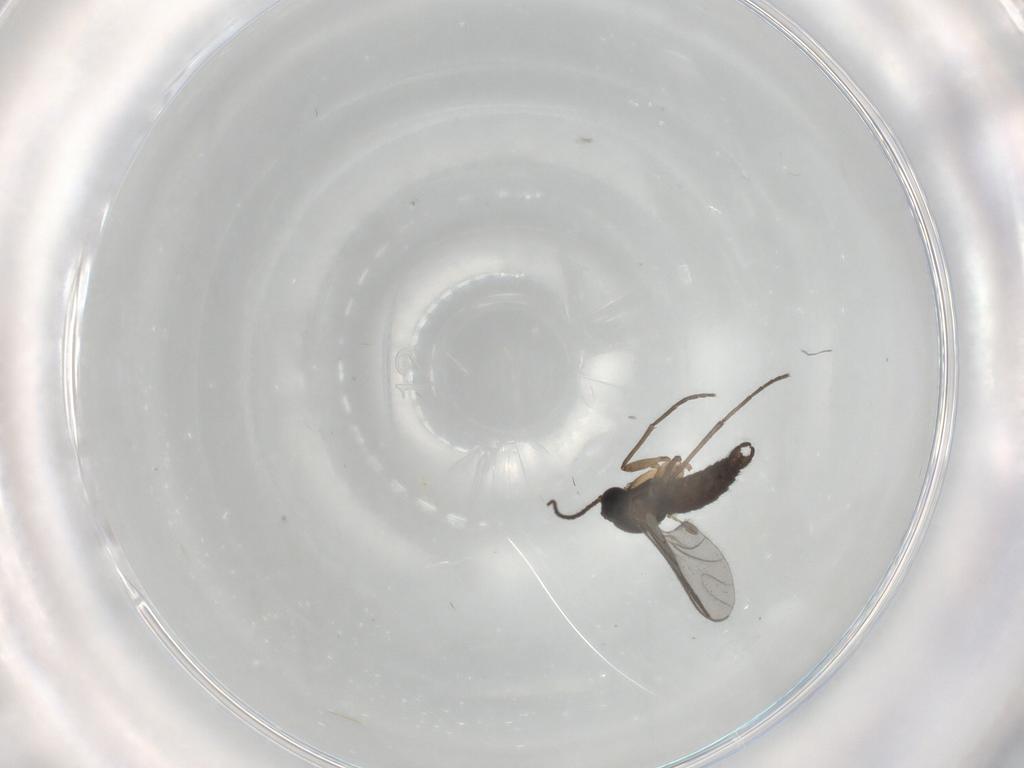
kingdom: Animalia
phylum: Arthropoda
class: Insecta
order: Diptera
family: Sciaridae
